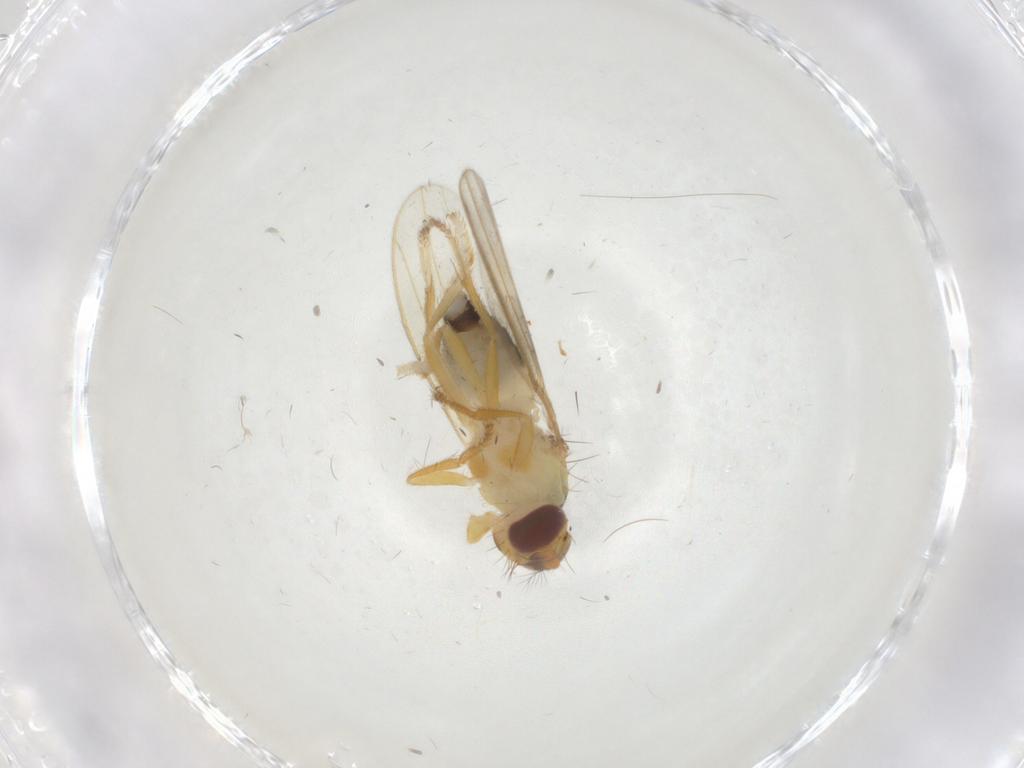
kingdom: Animalia
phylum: Arthropoda
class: Insecta
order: Diptera
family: Periscelididae
